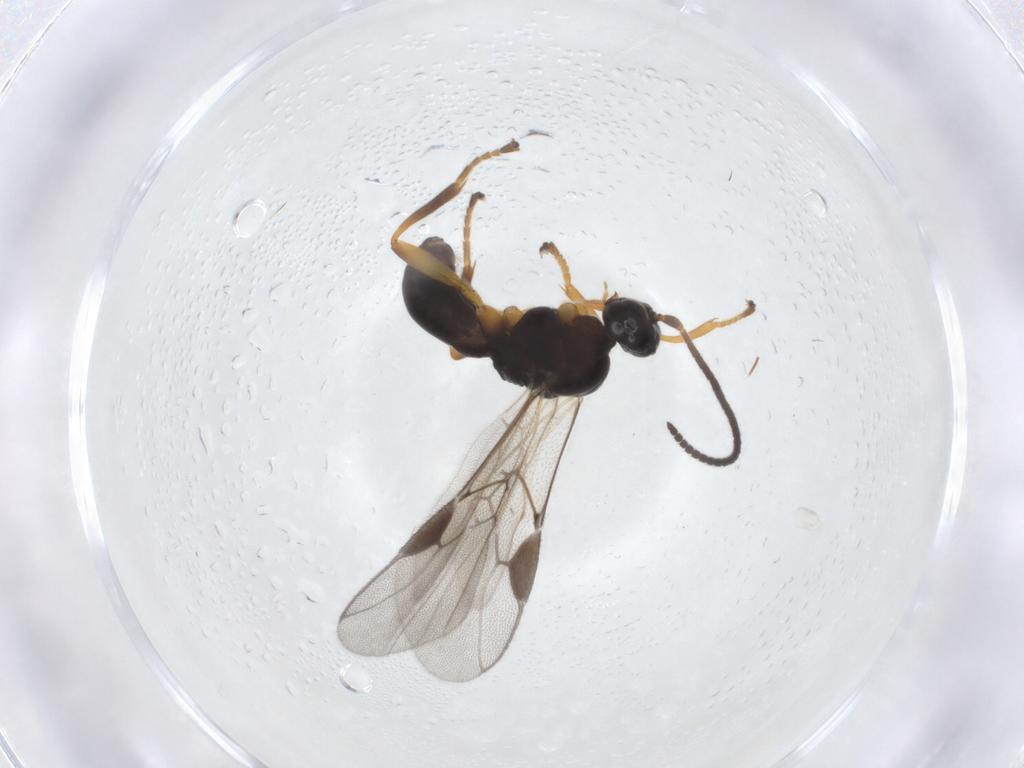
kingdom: Animalia
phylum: Arthropoda
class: Insecta
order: Hymenoptera
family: Braconidae
